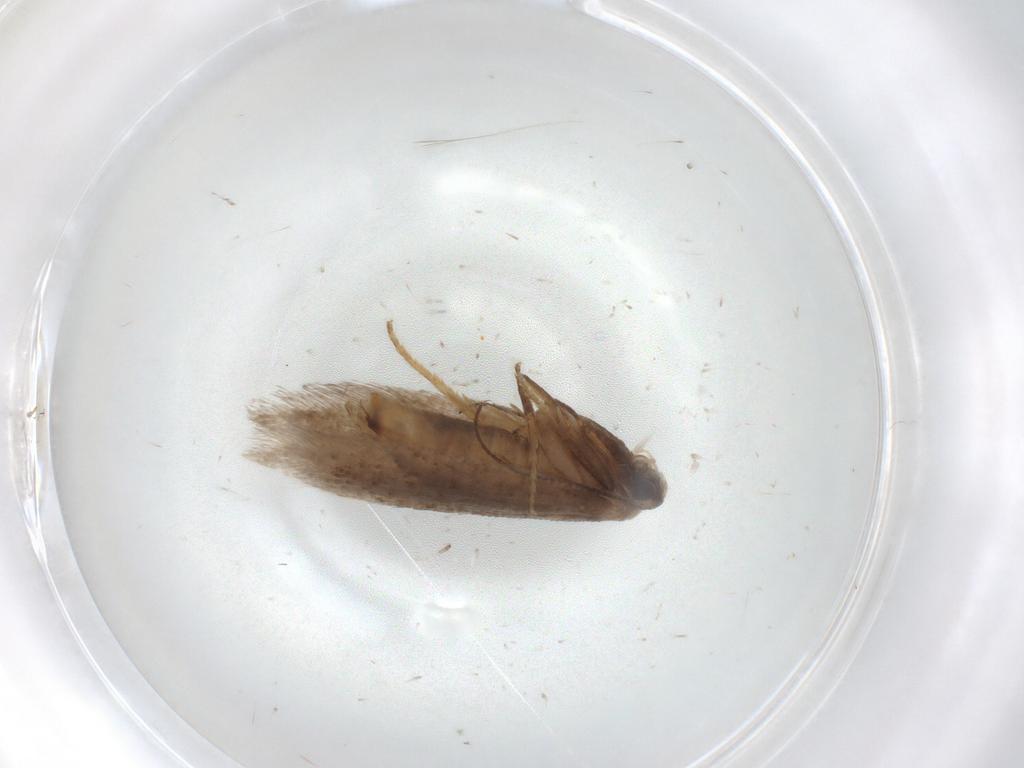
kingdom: Animalia
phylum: Arthropoda
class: Insecta
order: Lepidoptera
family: Nepticulidae
